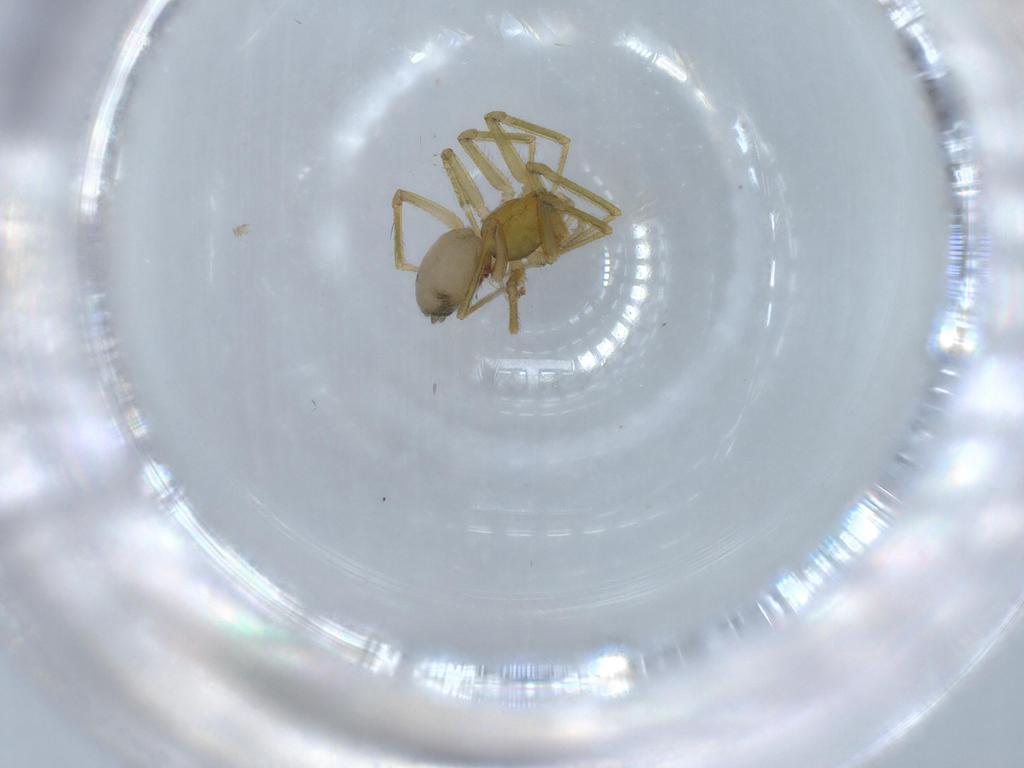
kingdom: Animalia
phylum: Arthropoda
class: Arachnida
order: Araneae
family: Linyphiidae
